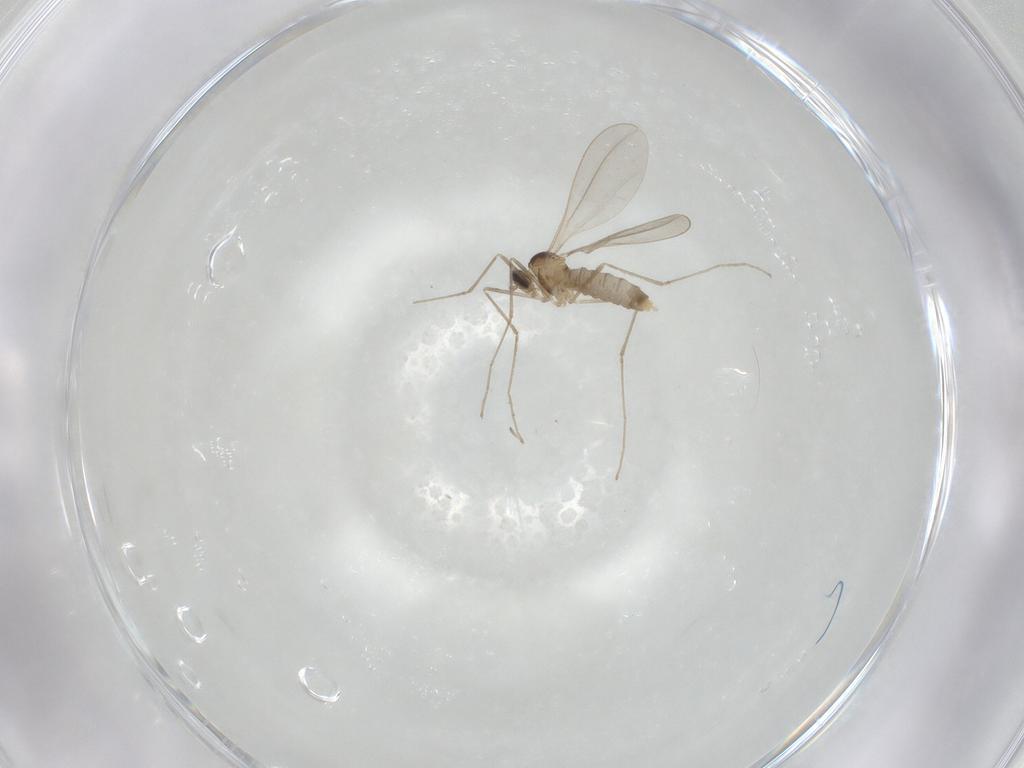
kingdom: Animalia
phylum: Arthropoda
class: Insecta
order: Diptera
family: Cecidomyiidae
